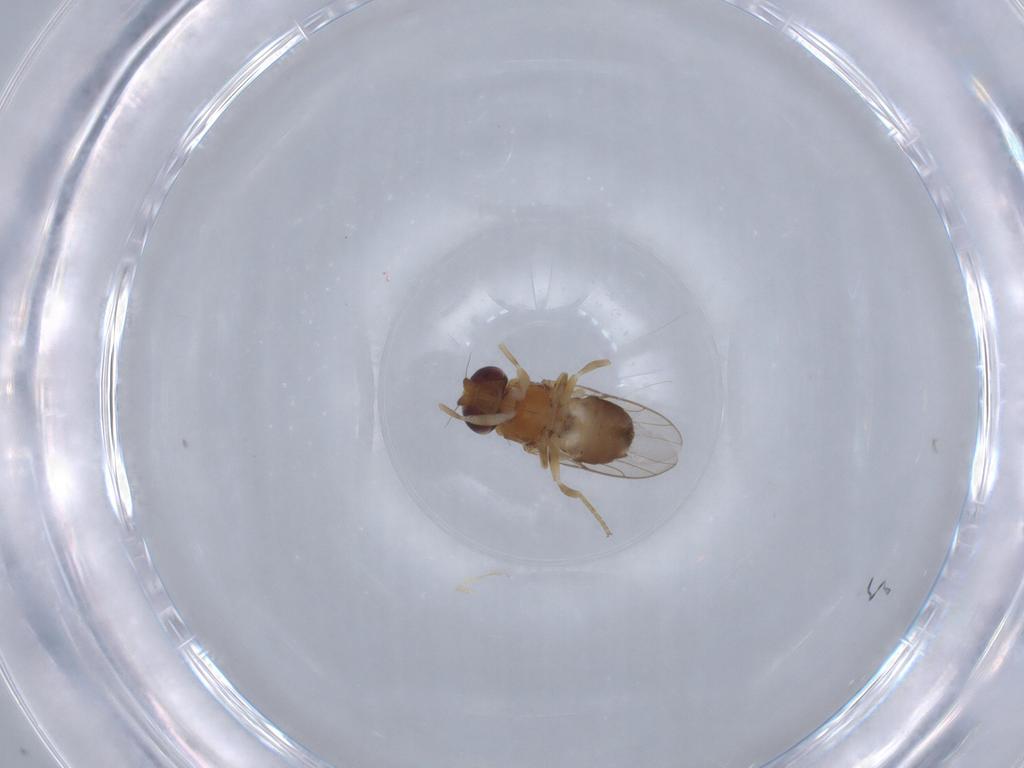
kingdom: Animalia
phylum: Arthropoda
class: Insecta
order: Diptera
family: Chloropidae
